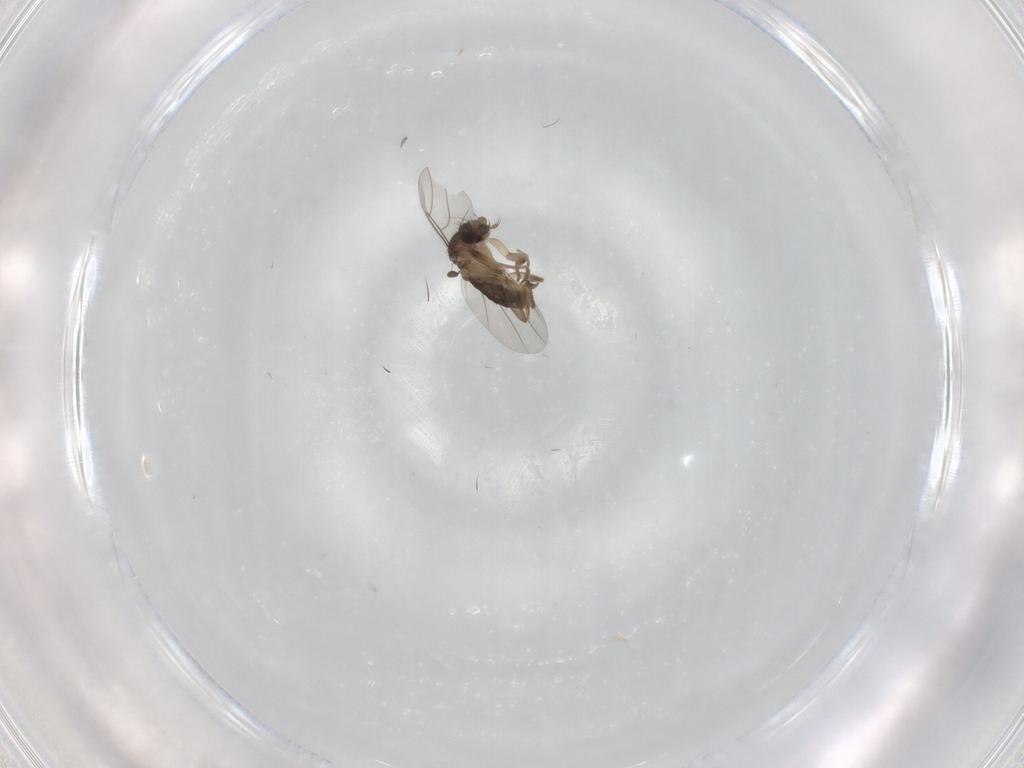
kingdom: Animalia
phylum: Arthropoda
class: Insecta
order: Diptera
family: Phoridae
